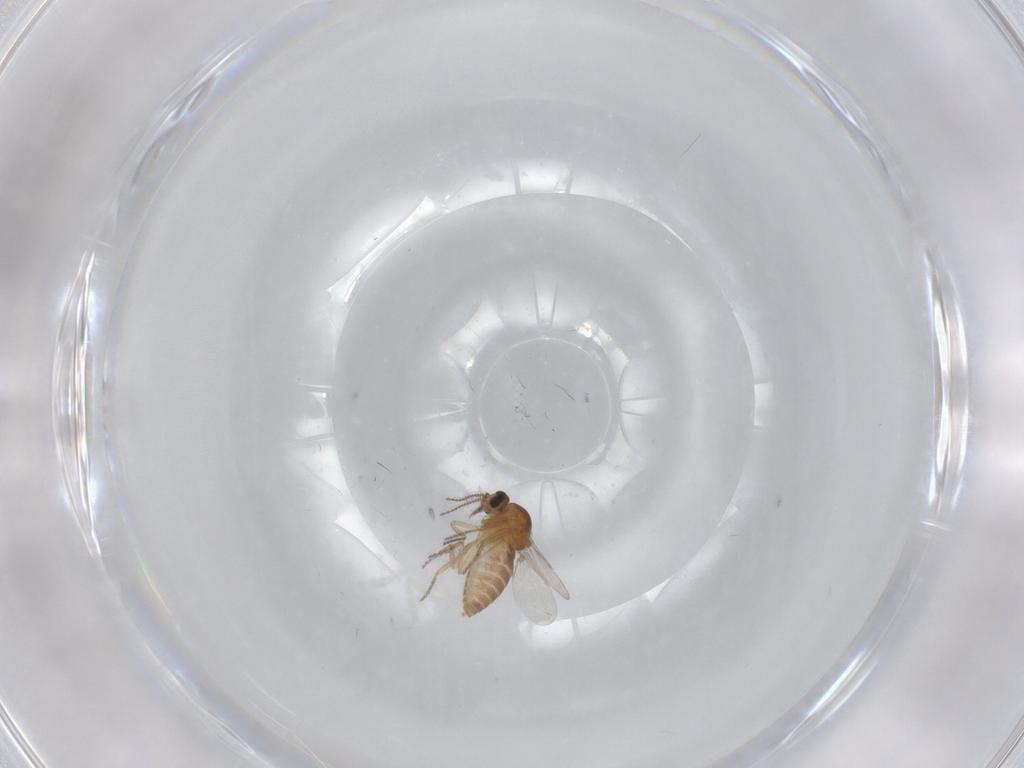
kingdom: Animalia
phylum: Arthropoda
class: Insecta
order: Diptera
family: Ceratopogonidae
